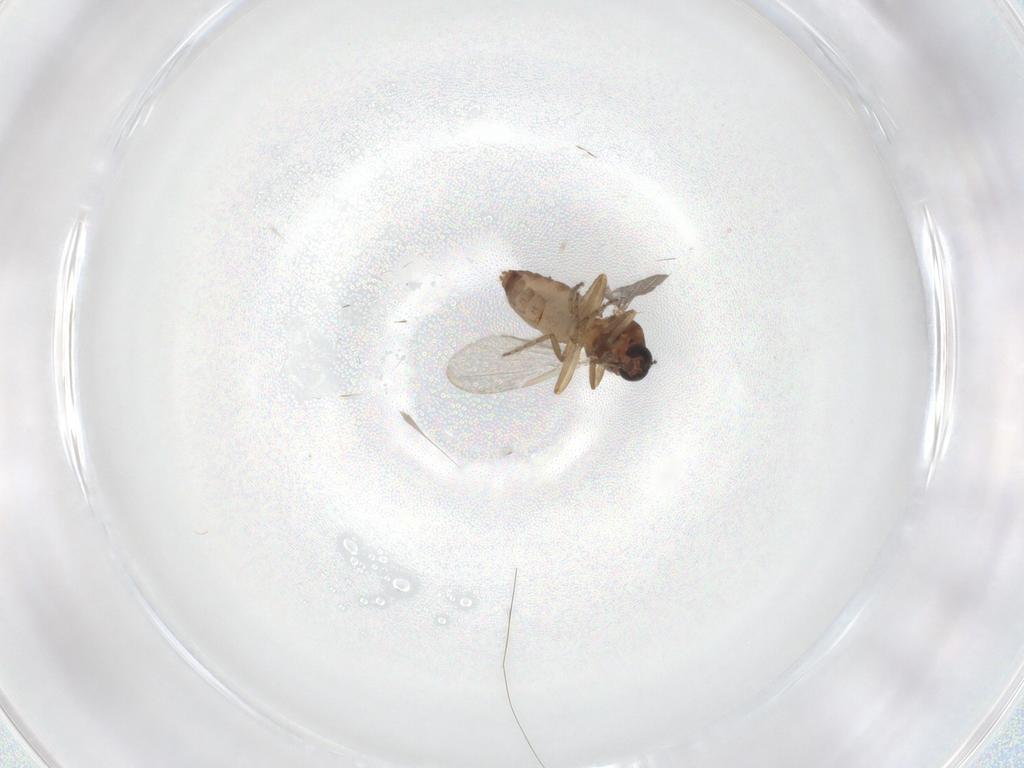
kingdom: Animalia
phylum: Arthropoda
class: Insecta
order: Diptera
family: Ceratopogonidae
